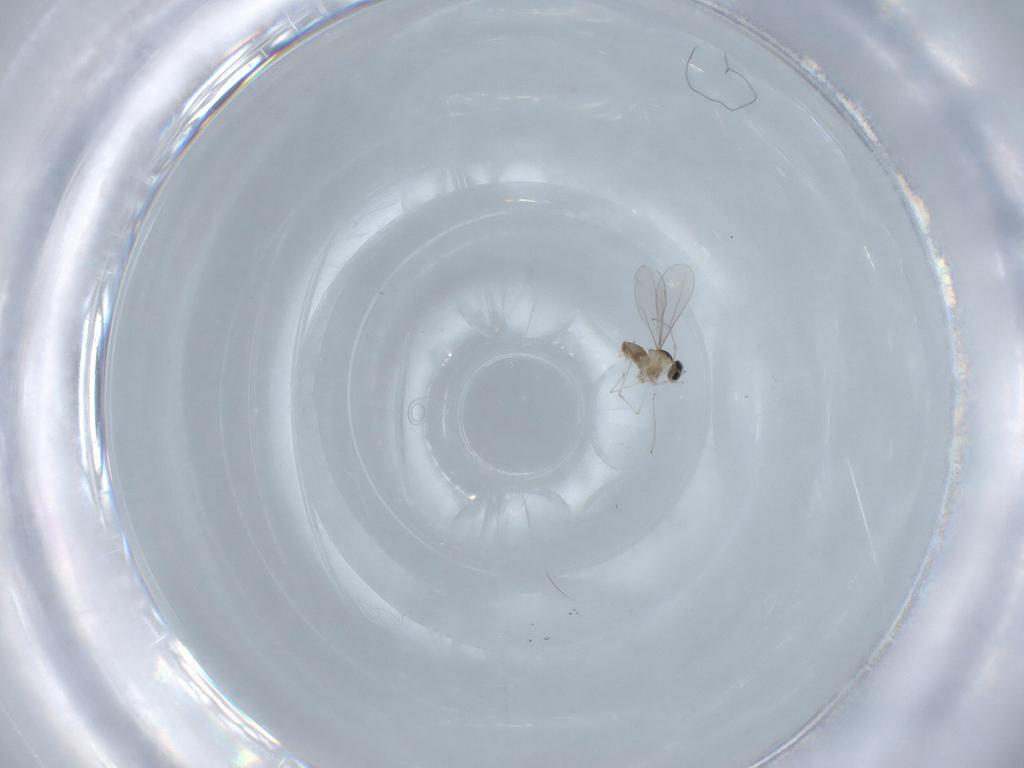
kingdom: Animalia
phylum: Arthropoda
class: Insecta
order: Diptera
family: Cecidomyiidae
